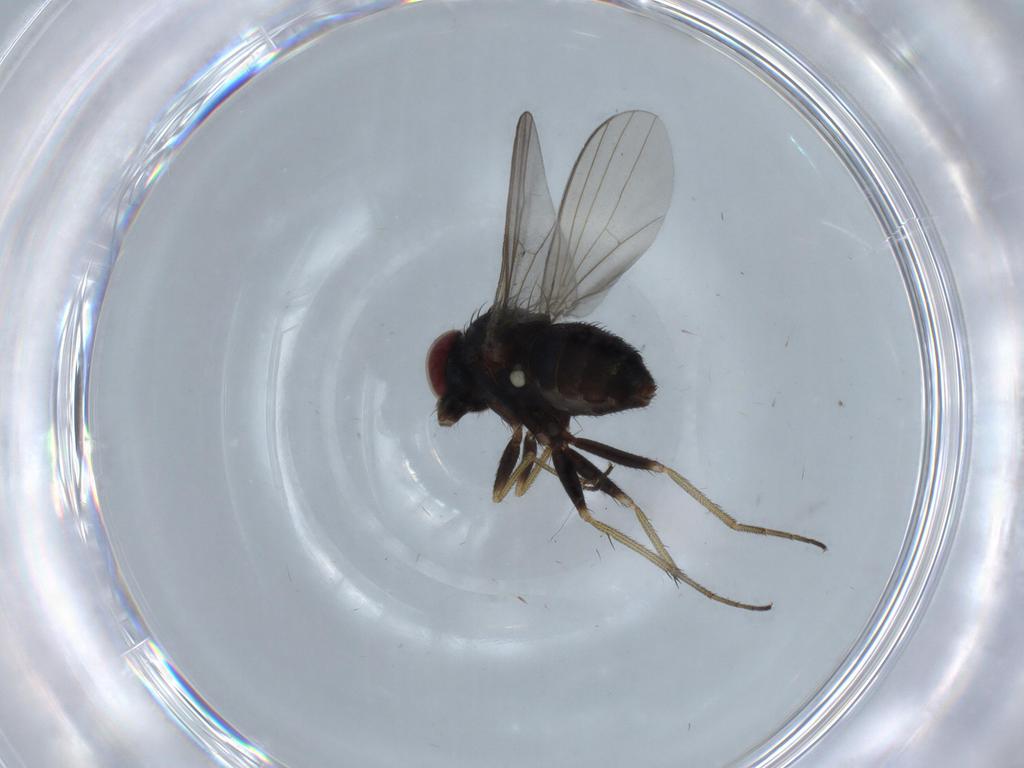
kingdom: Animalia
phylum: Arthropoda
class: Insecta
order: Diptera
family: Dolichopodidae
